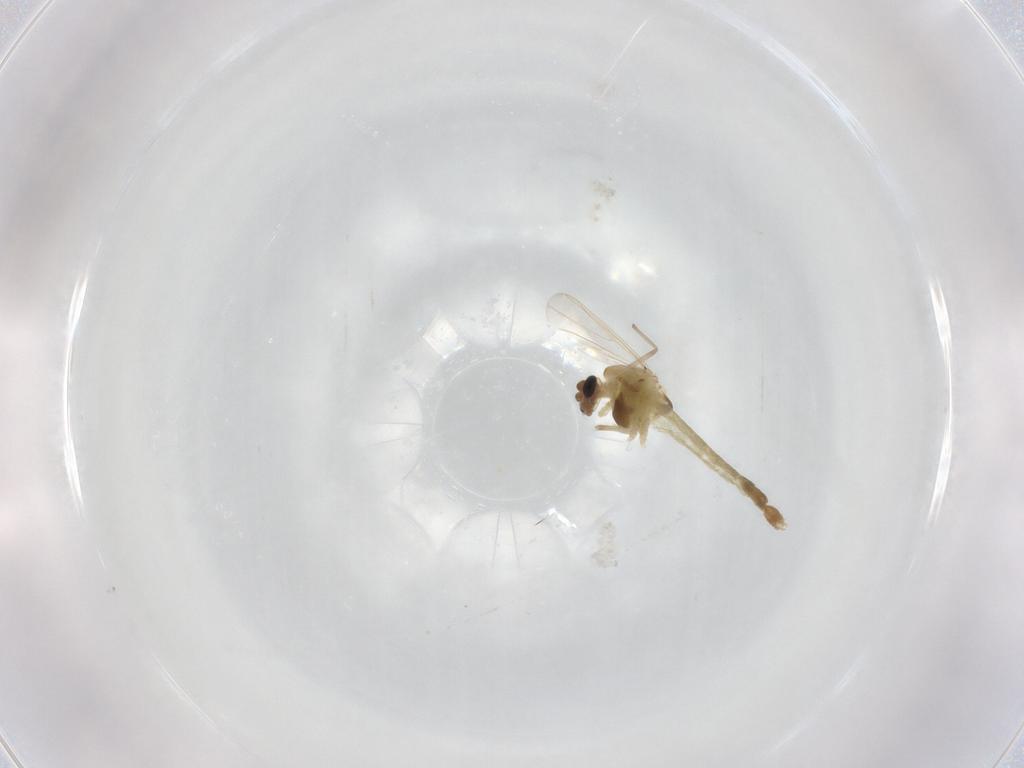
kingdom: Animalia
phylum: Arthropoda
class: Insecta
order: Diptera
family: Chironomidae
